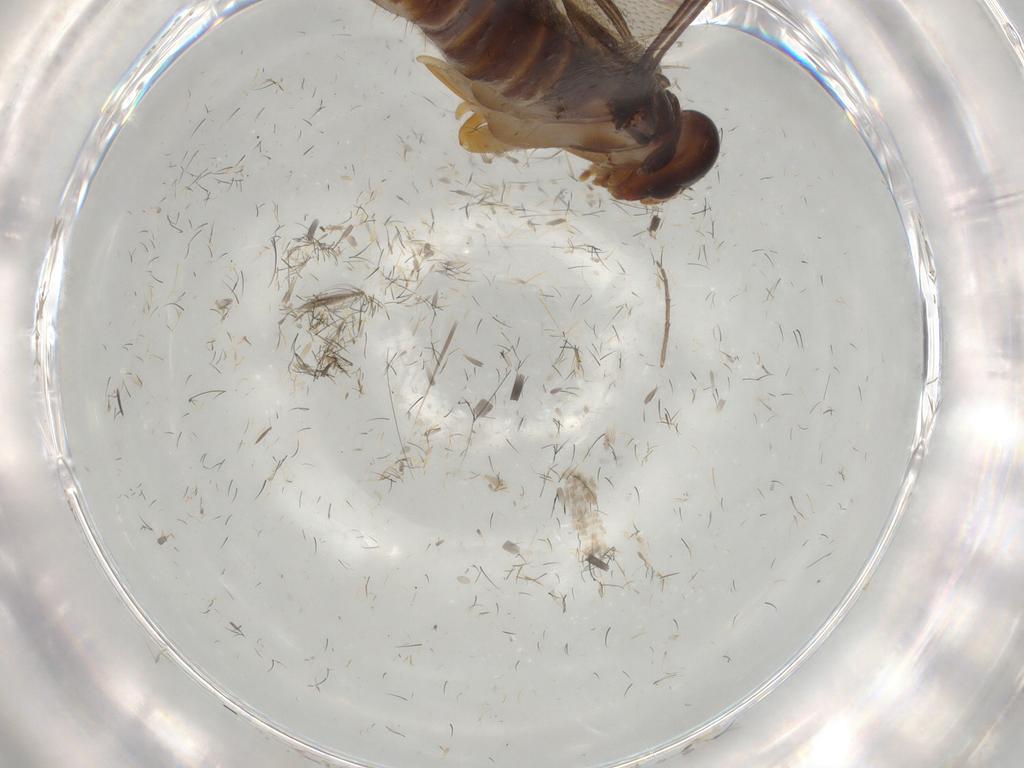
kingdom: Animalia
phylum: Arthropoda
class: Insecta
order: Blattodea
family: Kalotermitidae
